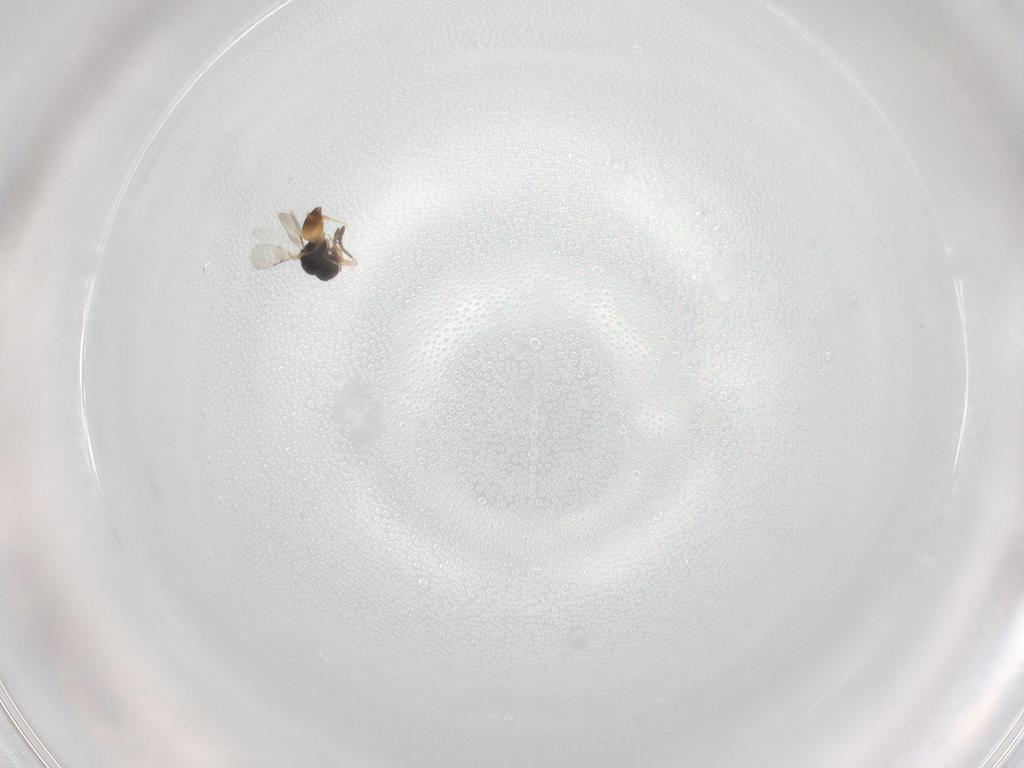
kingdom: Animalia
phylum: Arthropoda
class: Insecta
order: Hymenoptera
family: Ceraphronidae
